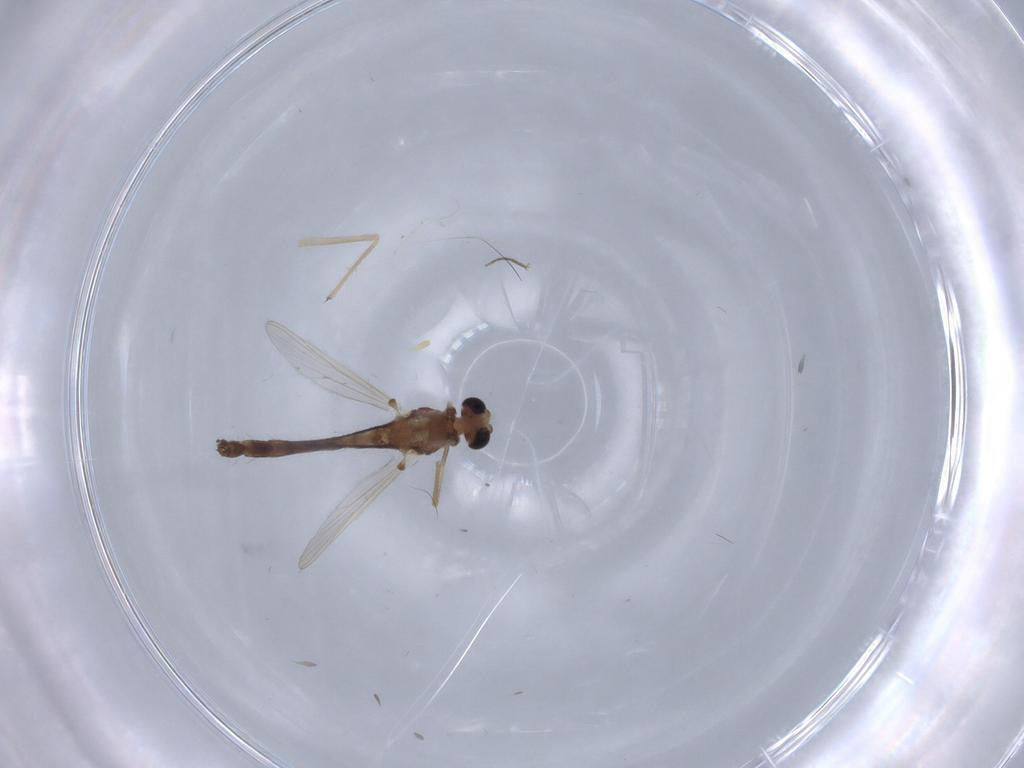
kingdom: Animalia
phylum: Arthropoda
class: Insecta
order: Diptera
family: Chironomidae
